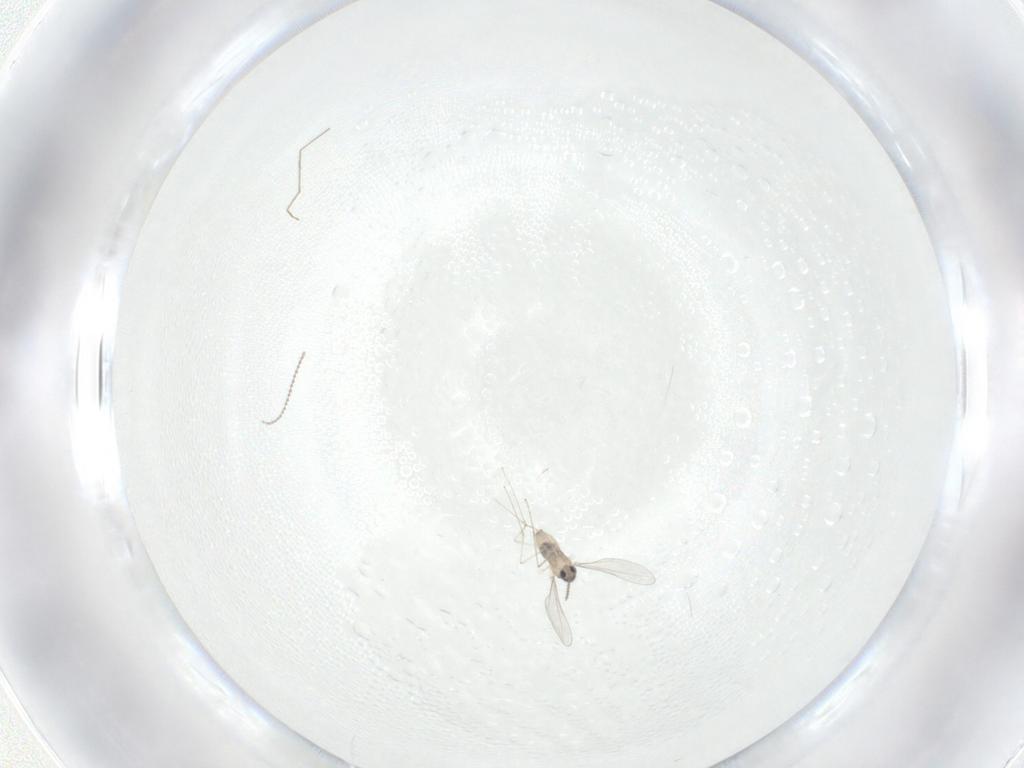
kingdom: Animalia
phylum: Arthropoda
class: Insecta
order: Diptera
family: Cecidomyiidae
